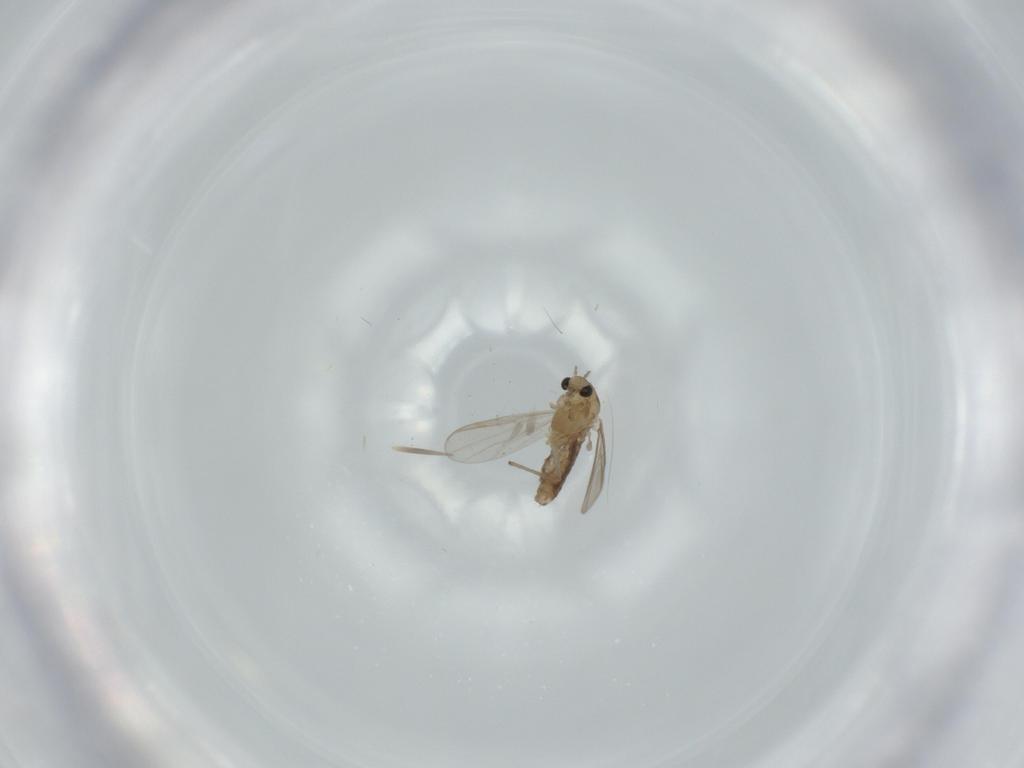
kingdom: Animalia
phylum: Arthropoda
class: Insecta
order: Diptera
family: Chironomidae
